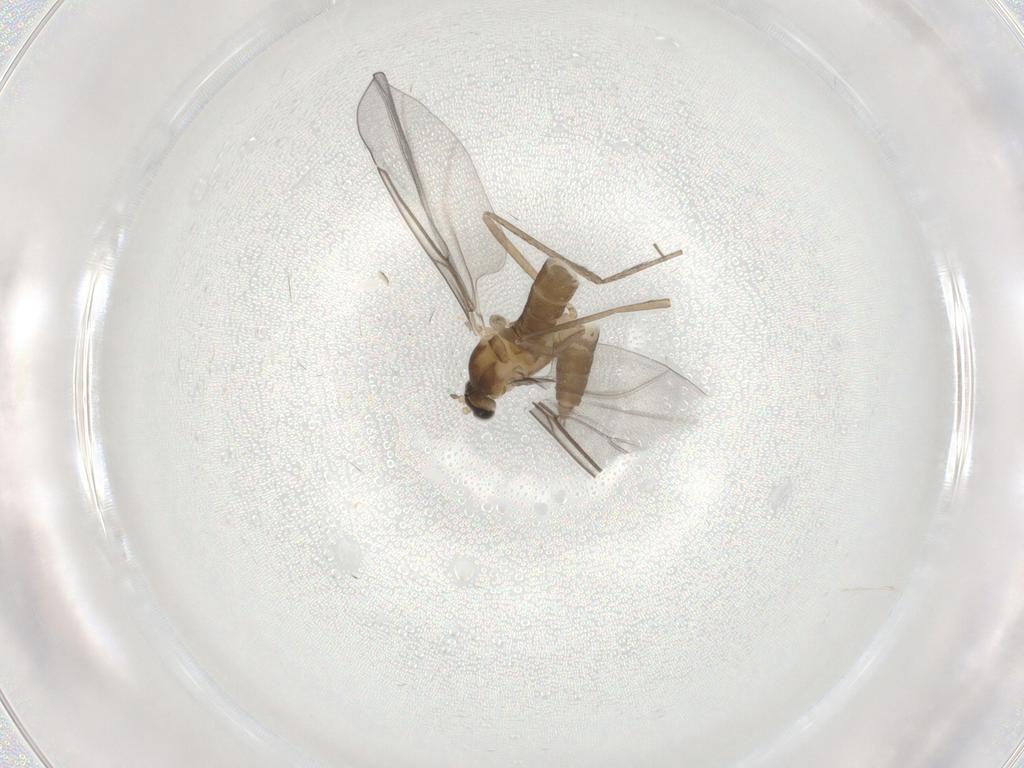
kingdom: Animalia
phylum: Arthropoda
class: Insecta
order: Diptera
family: Cecidomyiidae
